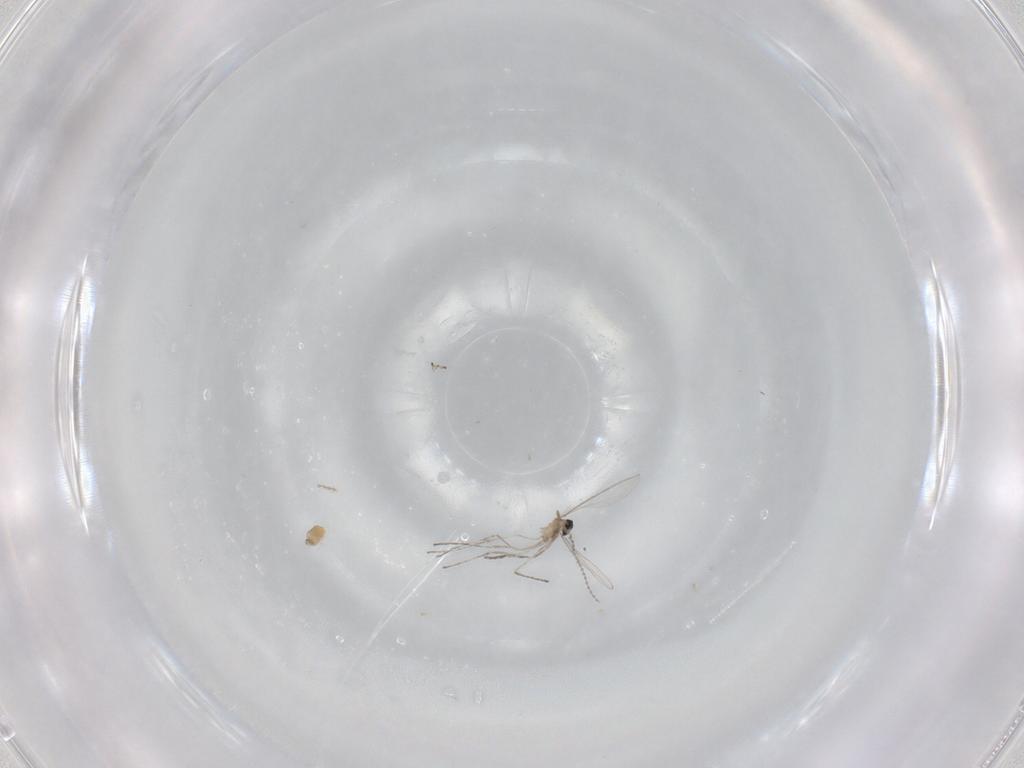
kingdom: Animalia
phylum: Arthropoda
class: Insecta
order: Diptera
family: Cecidomyiidae
